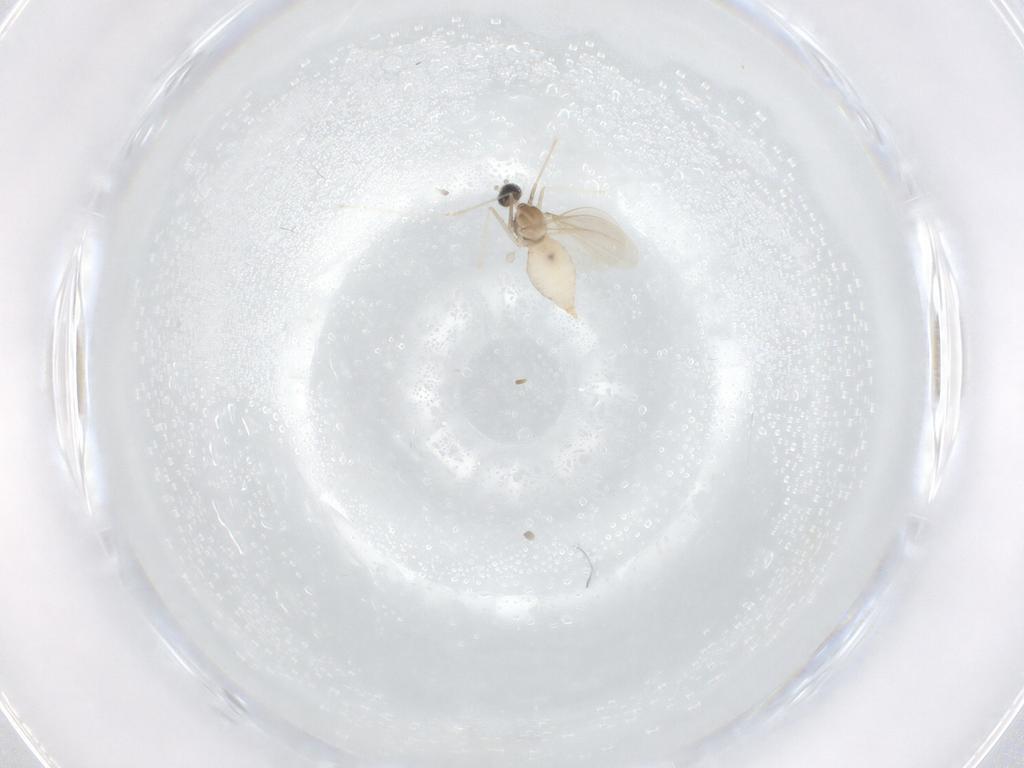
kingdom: Animalia
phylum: Arthropoda
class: Insecta
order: Diptera
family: Cecidomyiidae
